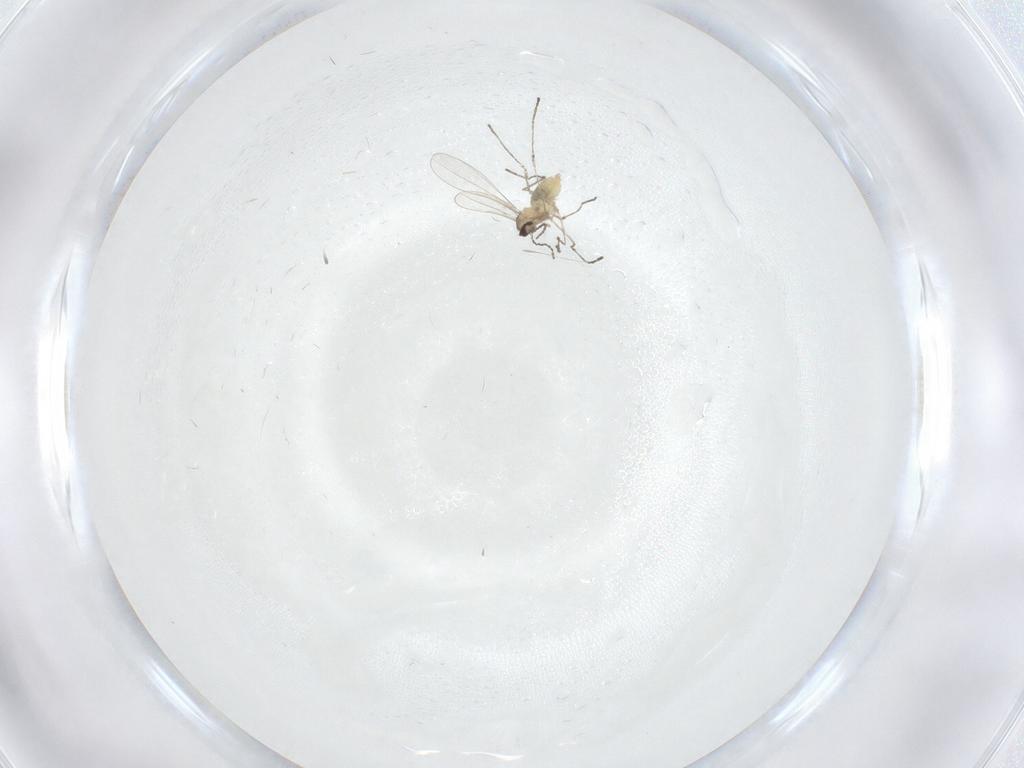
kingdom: Animalia
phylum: Arthropoda
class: Insecta
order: Diptera
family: Cecidomyiidae
